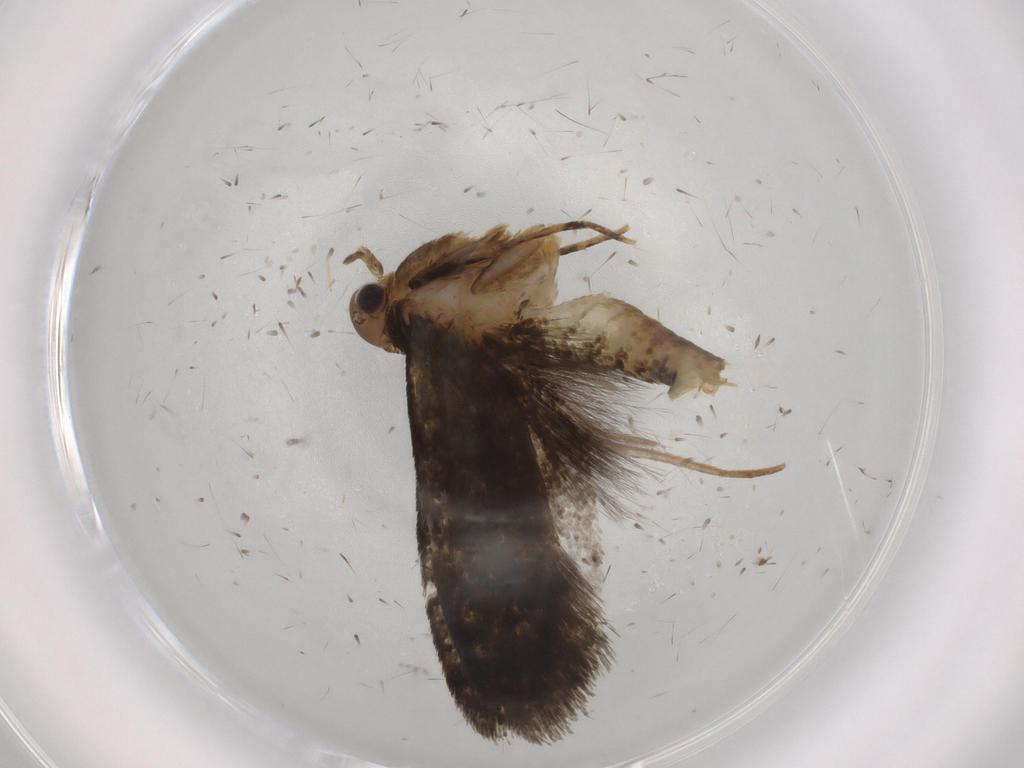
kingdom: Animalia
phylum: Arthropoda
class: Insecta
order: Lepidoptera
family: Tineidae
